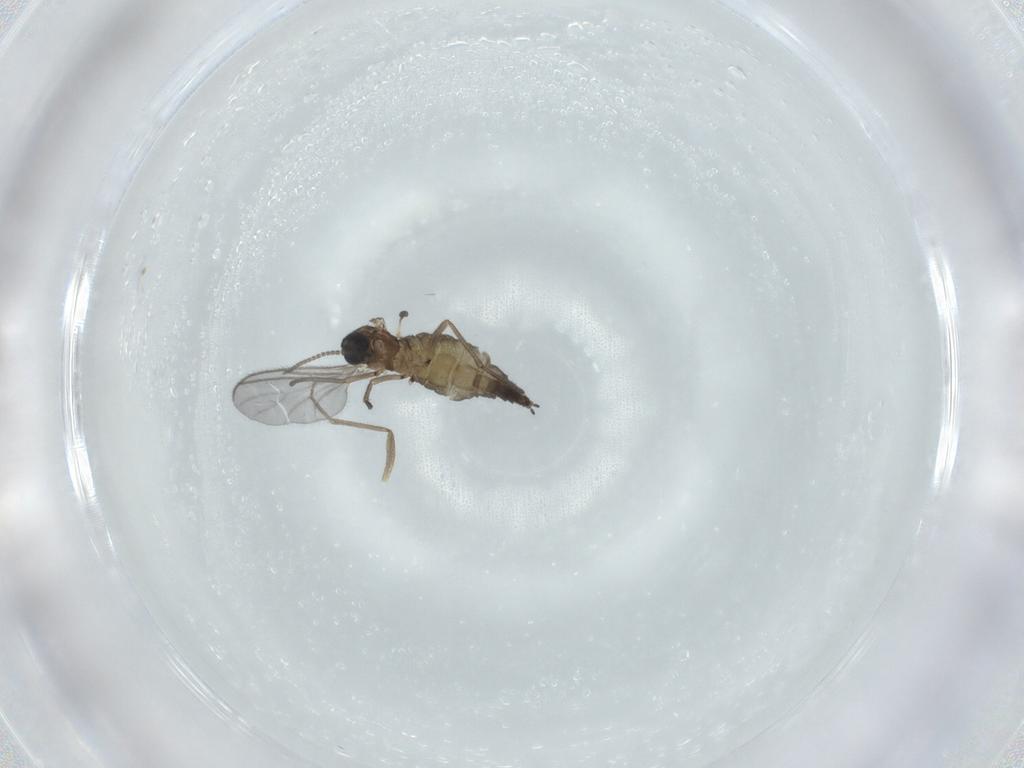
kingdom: Animalia
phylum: Arthropoda
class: Insecta
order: Diptera
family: Sciaridae
